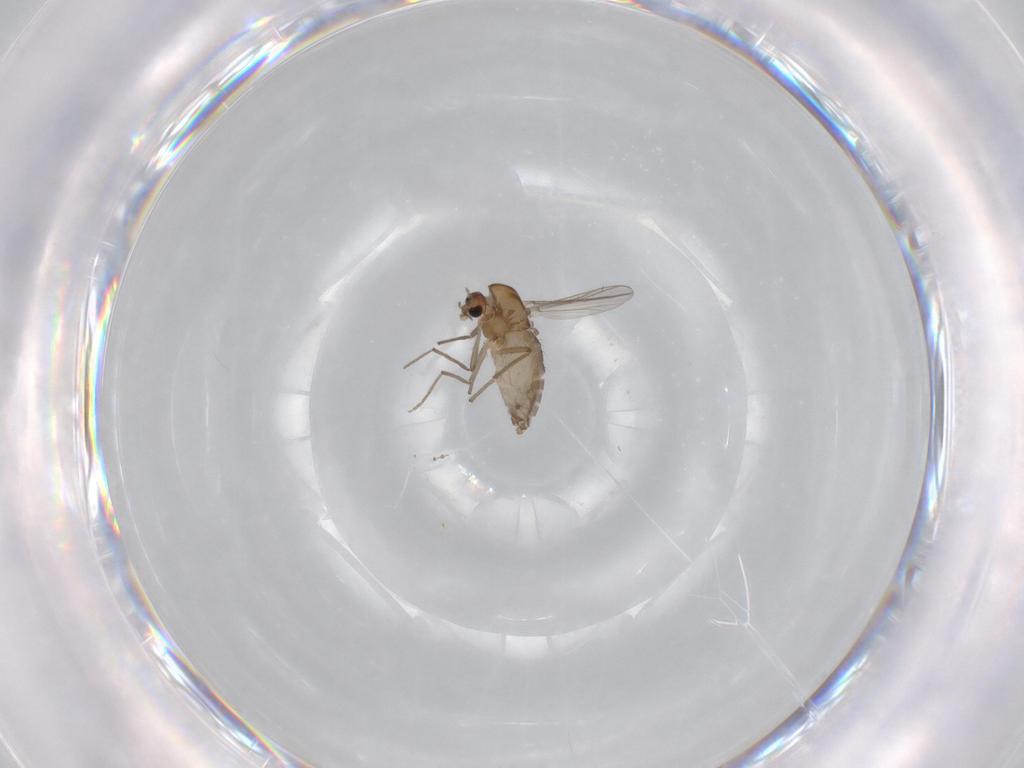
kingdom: Animalia
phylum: Arthropoda
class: Insecta
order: Diptera
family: Chironomidae
